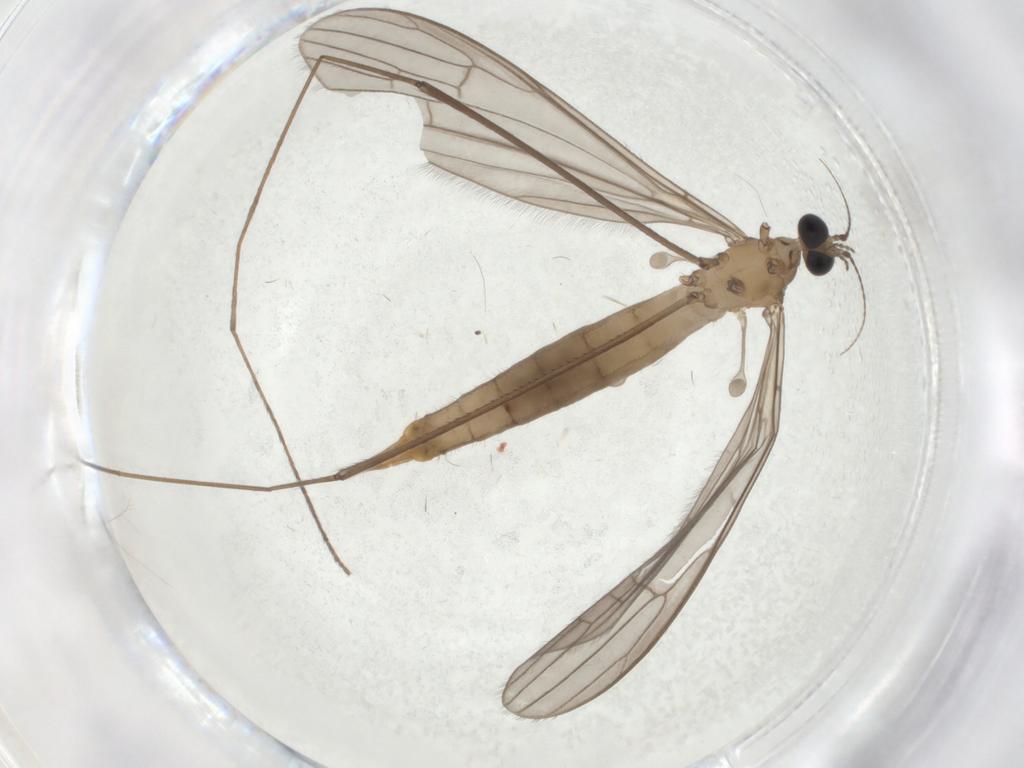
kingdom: Animalia
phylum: Arthropoda
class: Insecta
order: Diptera
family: Limoniidae
